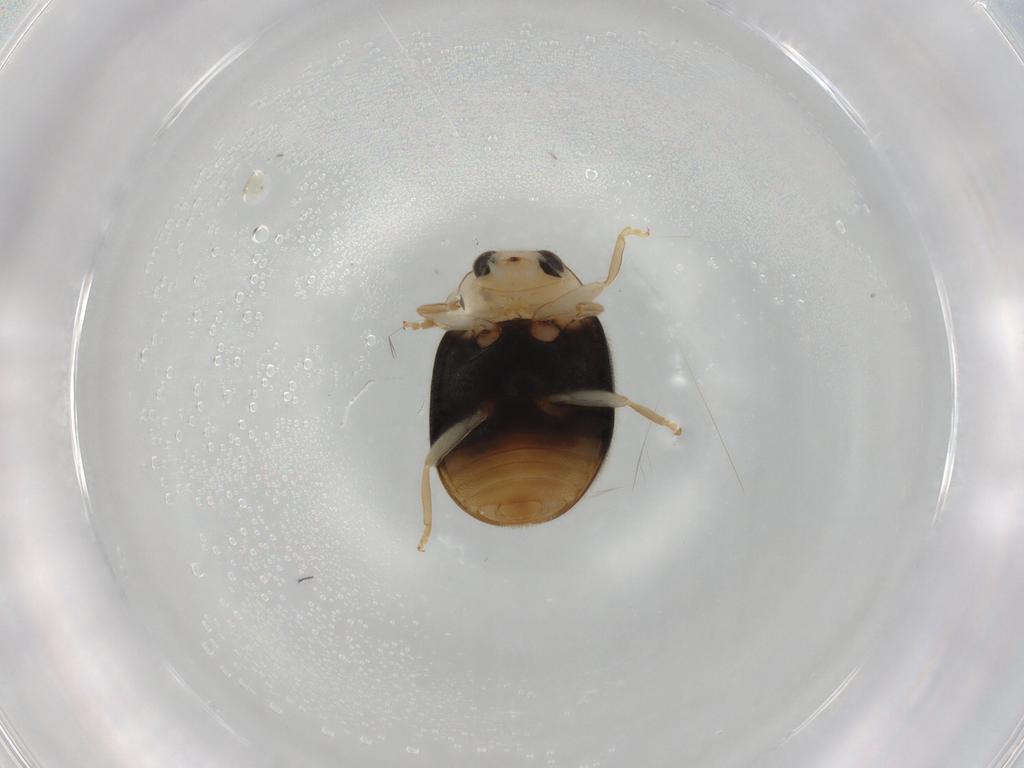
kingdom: Animalia
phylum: Arthropoda
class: Insecta
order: Coleoptera
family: Coccinellidae
